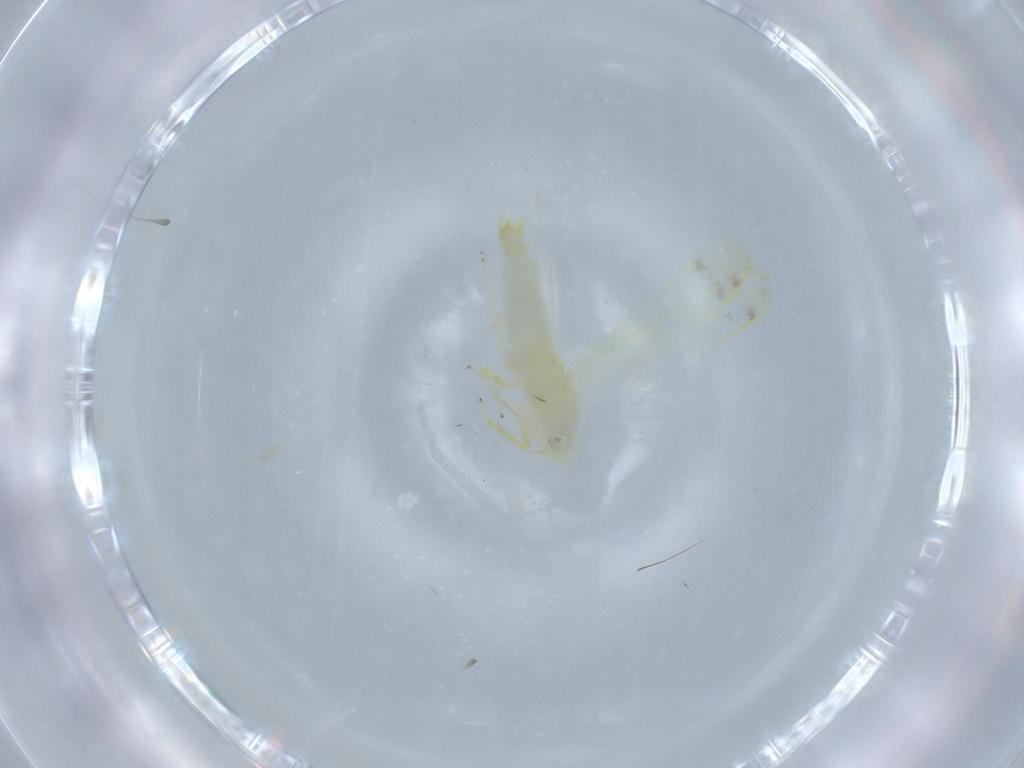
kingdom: Animalia
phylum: Arthropoda
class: Insecta
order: Hemiptera
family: Cicadellidae
